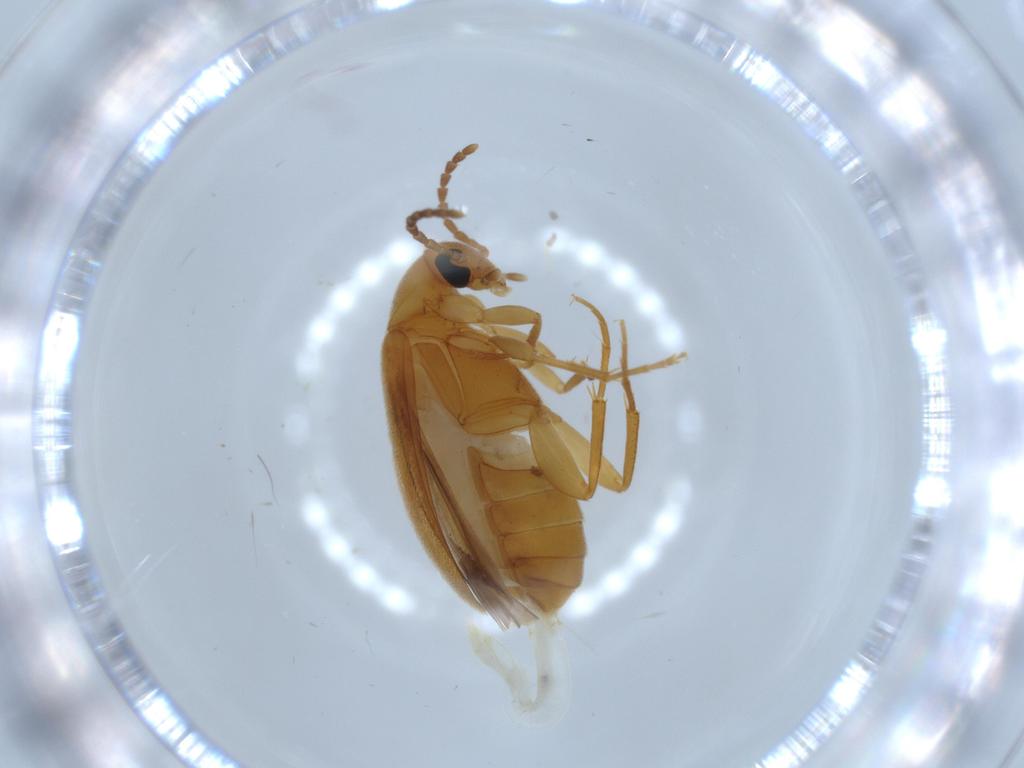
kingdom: Animalia
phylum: Arthropoda
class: Insecta
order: Coleoptera
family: Scraptiidae
